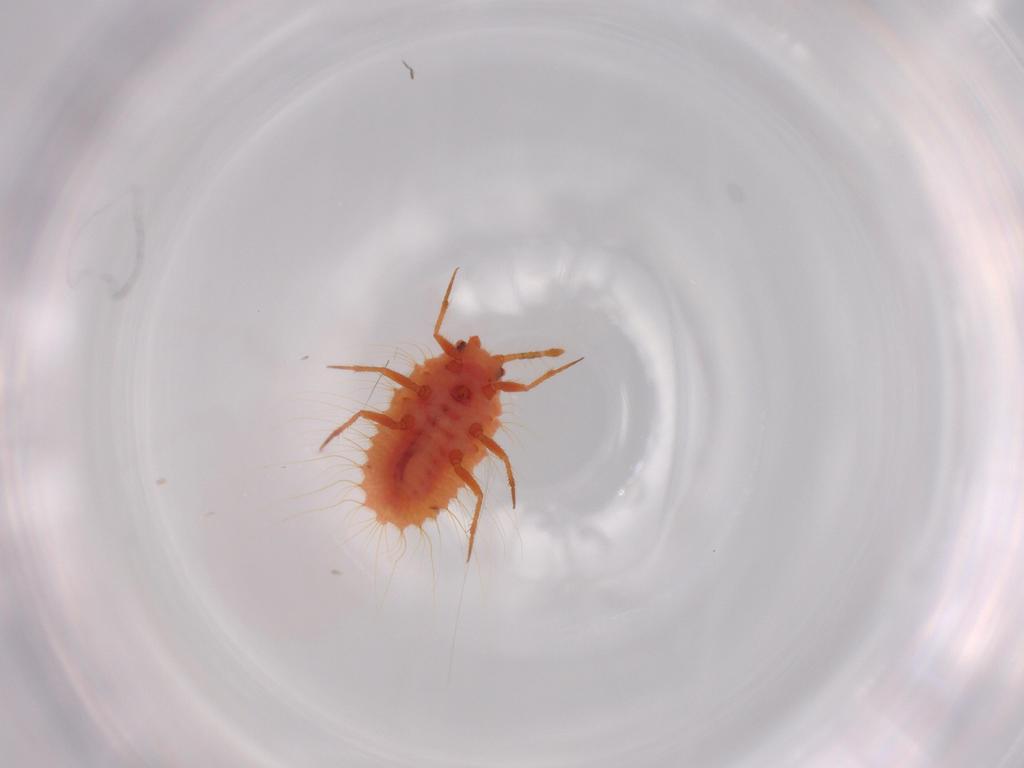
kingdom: Animalia
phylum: Arthropoda
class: Insecta
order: Hemiptera
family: Coccoidea_incertae_sedis
